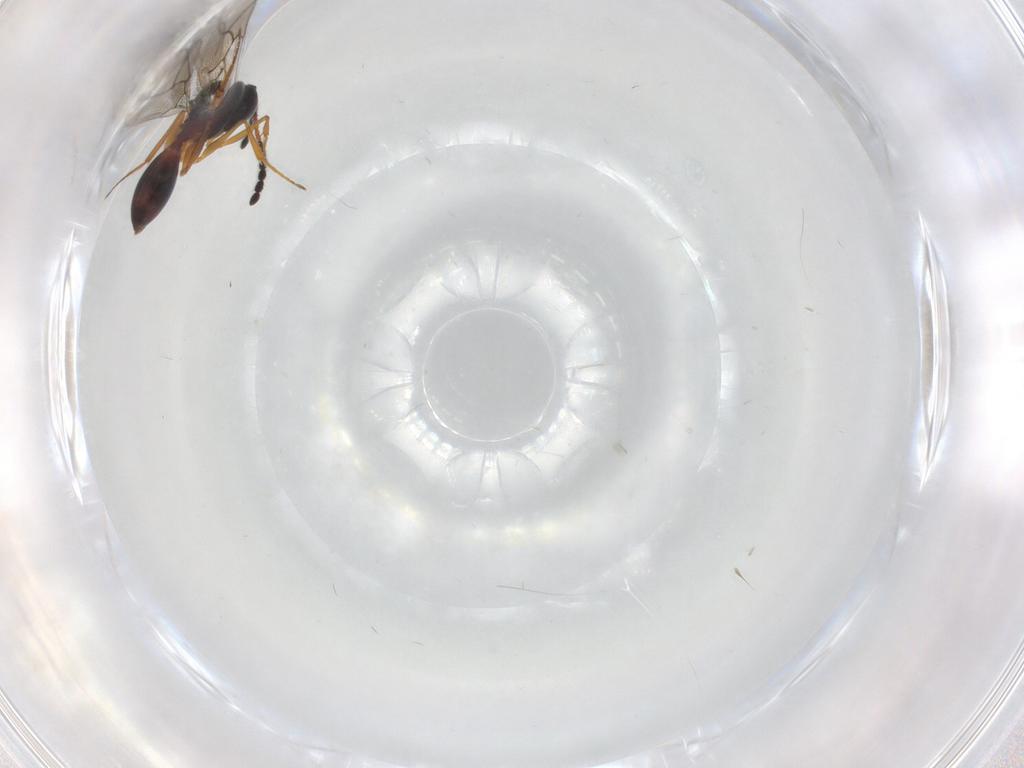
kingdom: Animalia
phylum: Arthropoda
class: Insecta
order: Hymenoptera
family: Figitidae
